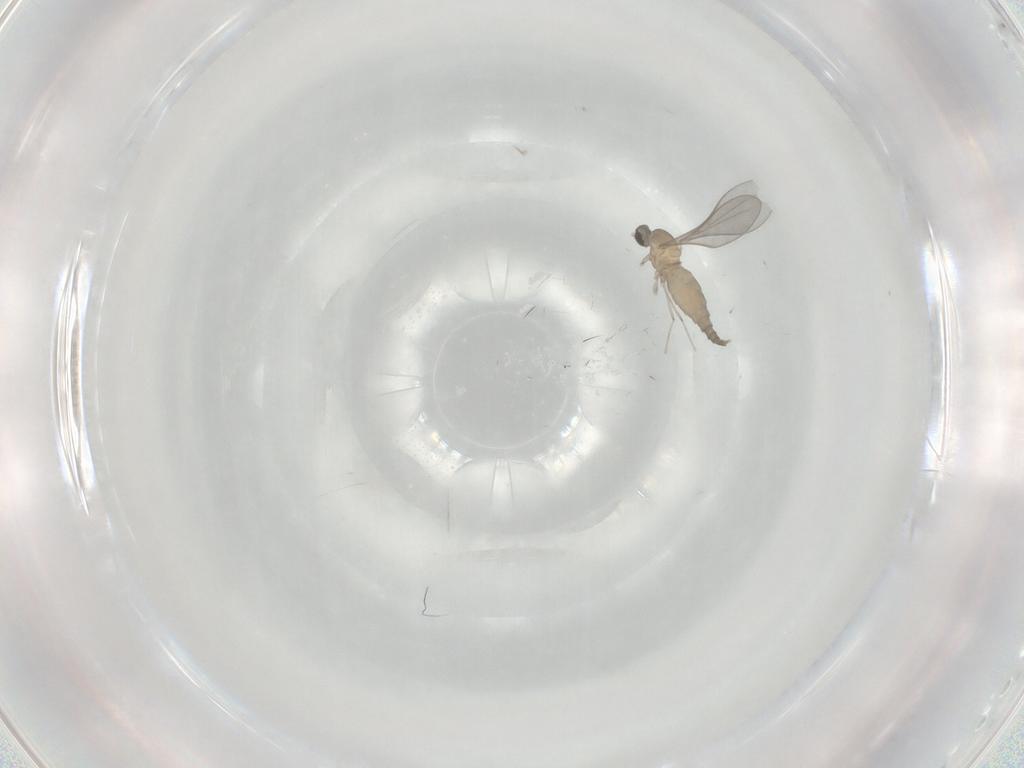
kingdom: Animalia
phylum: Arthropoda
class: Insecta
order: Diptera
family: Cecidomyiidae
